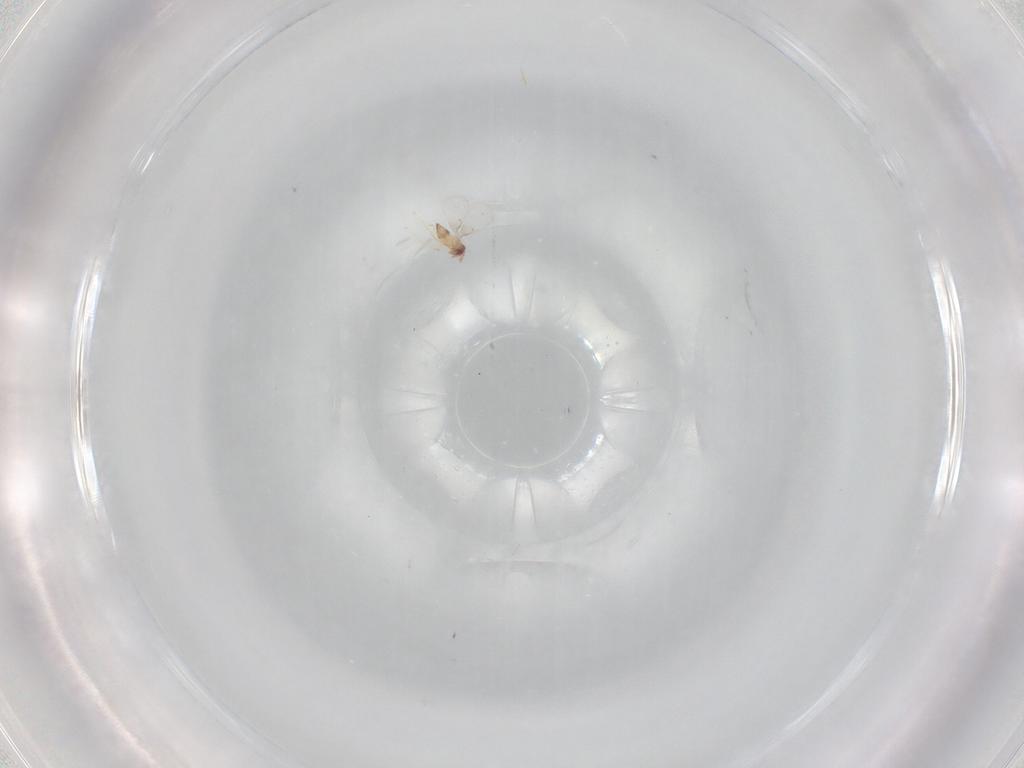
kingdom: Animalia
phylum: Arthropoda
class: Insecta
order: Hymenoptera
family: Trichogrammatidae
